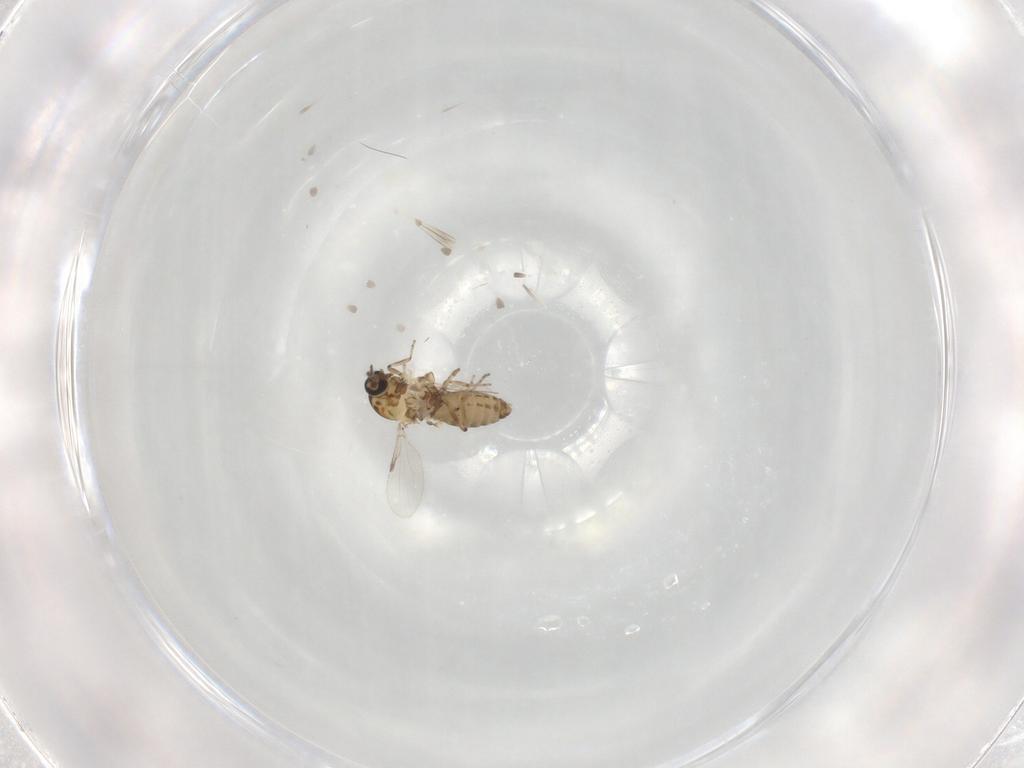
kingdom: Animalia
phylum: Arthropoda
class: Insecta
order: Diptera
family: Ceratopogonidae
